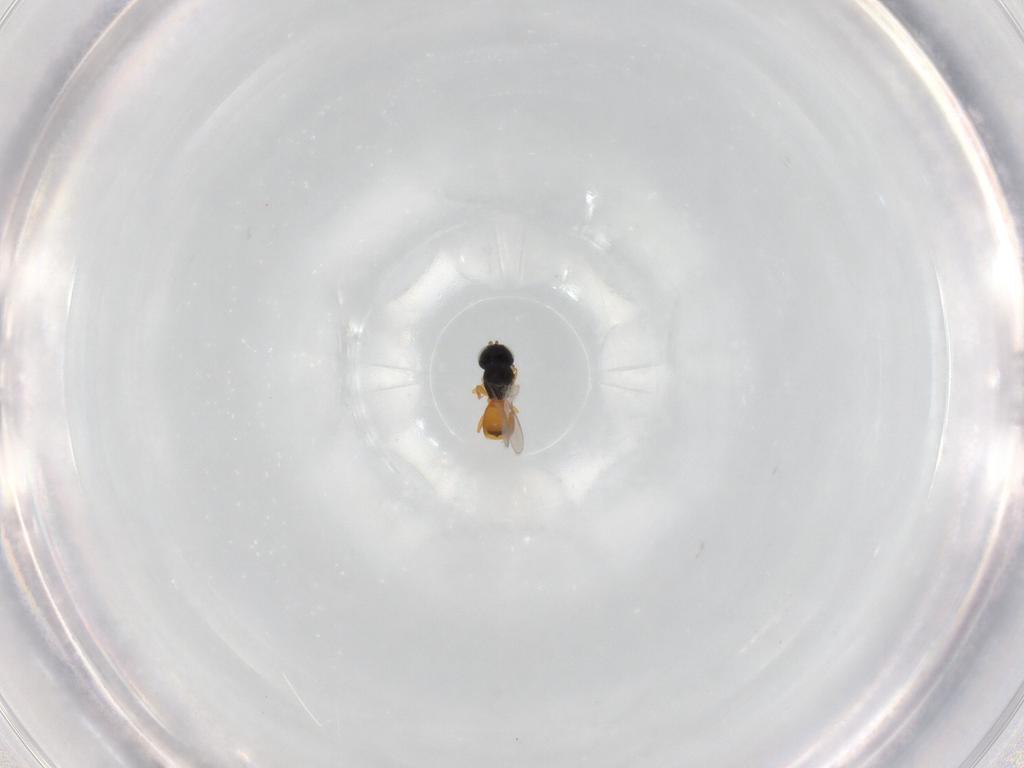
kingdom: Animalia
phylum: Arthropoda
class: Insecta
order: Hymenoptera
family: Scelionidae
